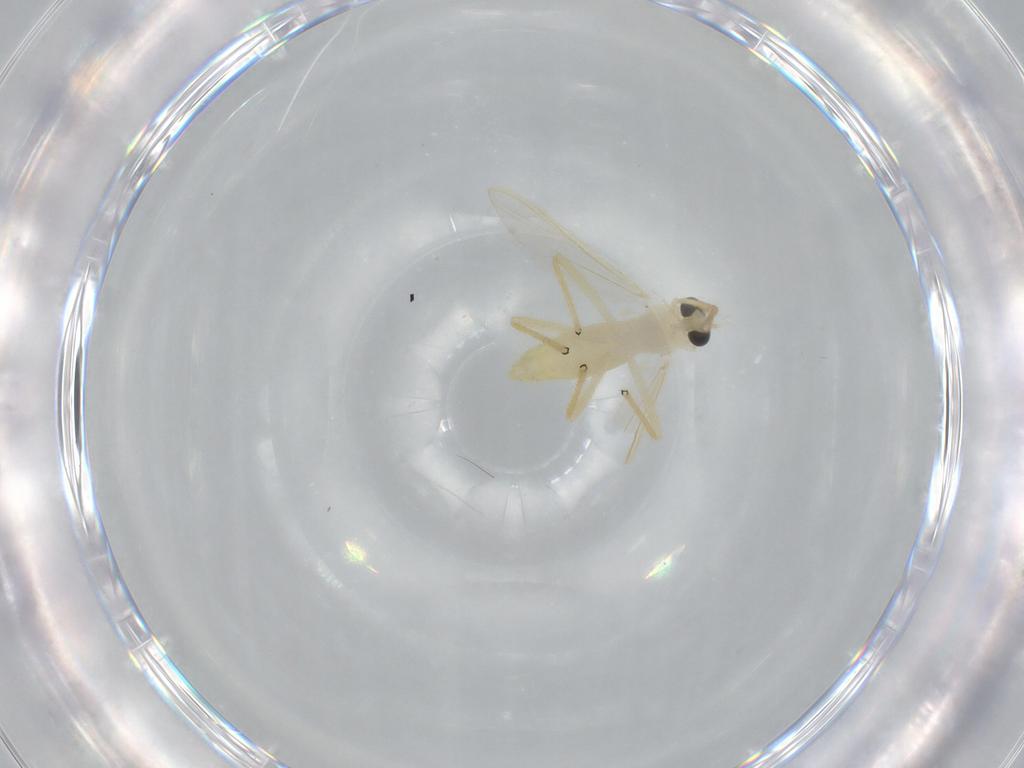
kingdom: Animalia
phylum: Arthropoda
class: Insecta
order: Diptera
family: Chironomidae
